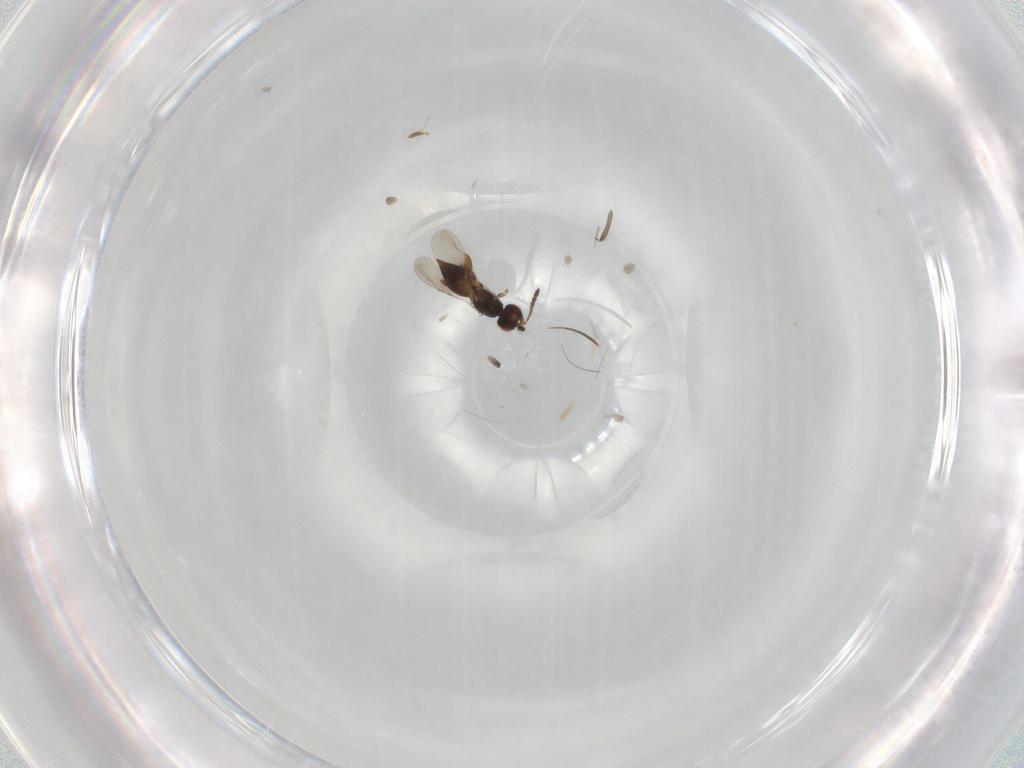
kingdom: Animalia
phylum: Arthropoda
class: Insecta
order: Hymenoptera
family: Ceraphronidae
